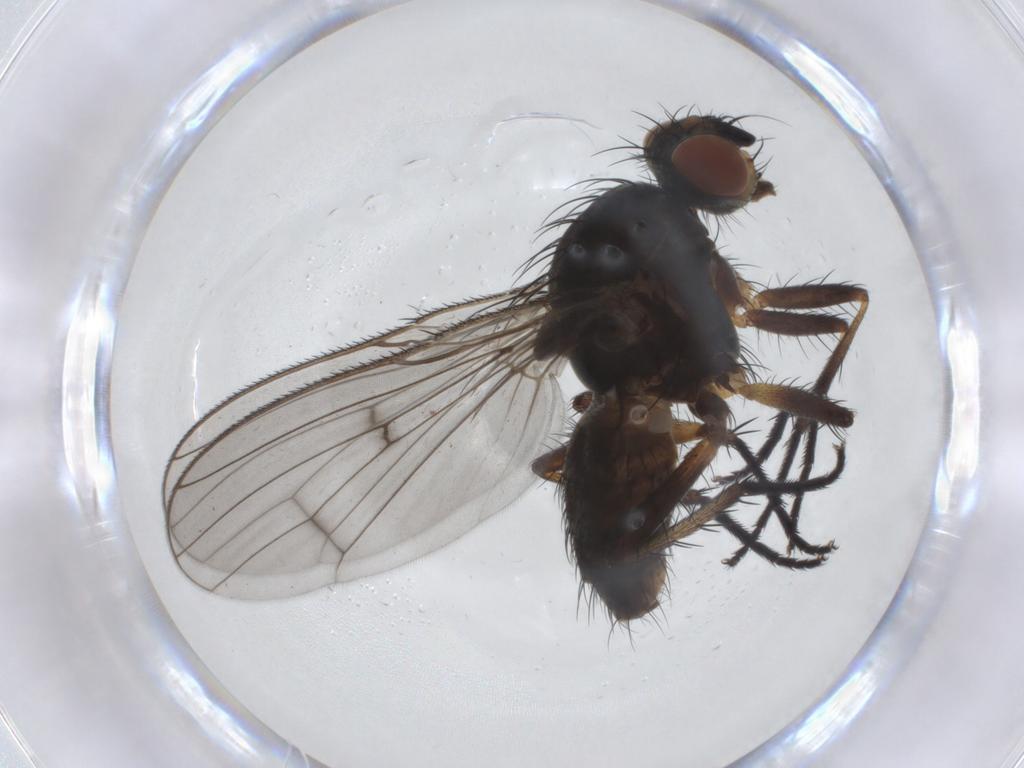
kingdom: Animalia
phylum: Arthropoda
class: Insecta
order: Diptera
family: Anthomyiidae
